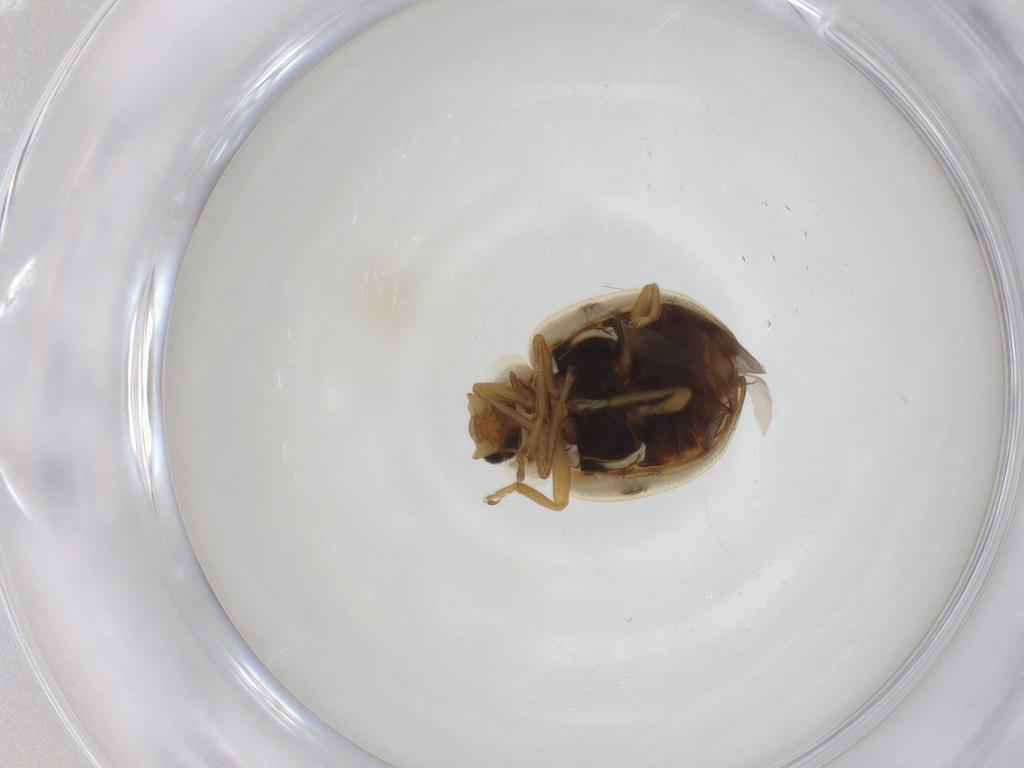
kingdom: Animalia
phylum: Arthropoda
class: Insecta
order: Coleoptera
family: Coccinellidae
